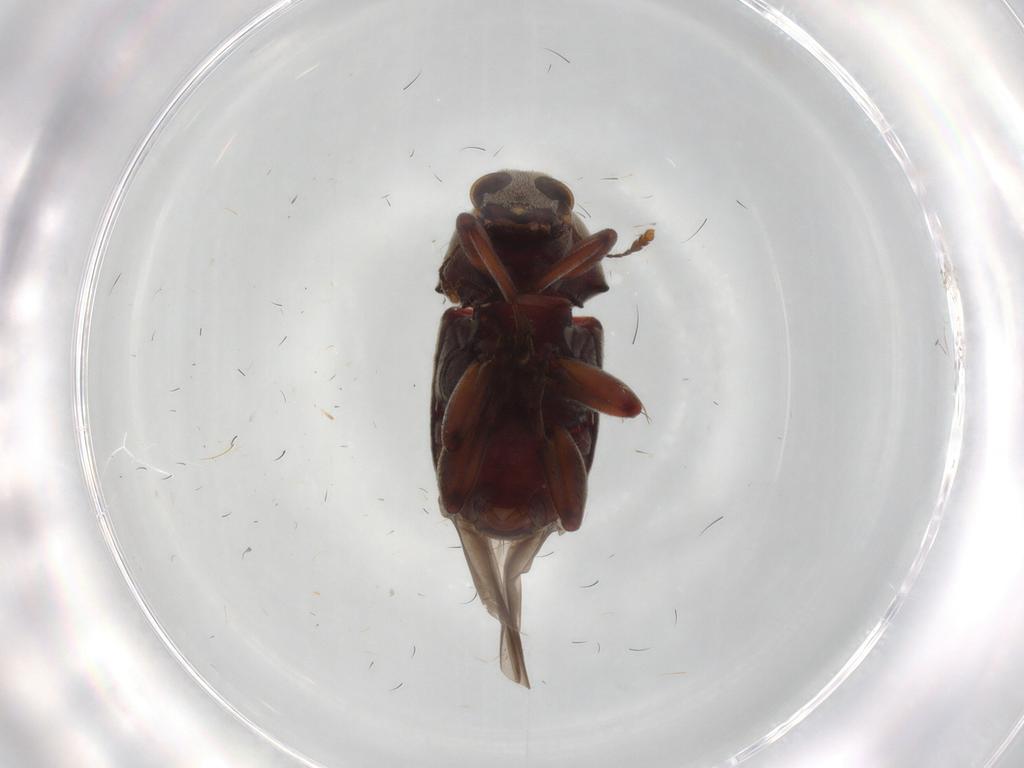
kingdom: Animalia
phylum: Arthropoda
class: Insecta
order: Coleoptera
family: Anthribidae
